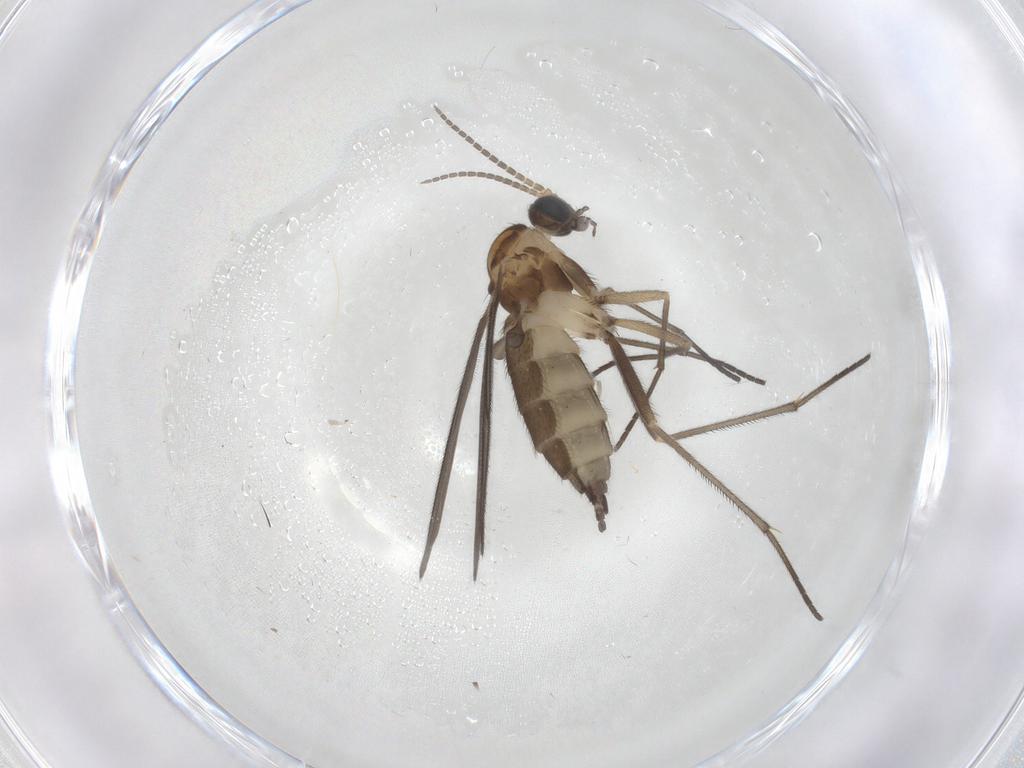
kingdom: Animalia
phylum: Arthropoda
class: Insecta
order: Diptera
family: Sciaridae
